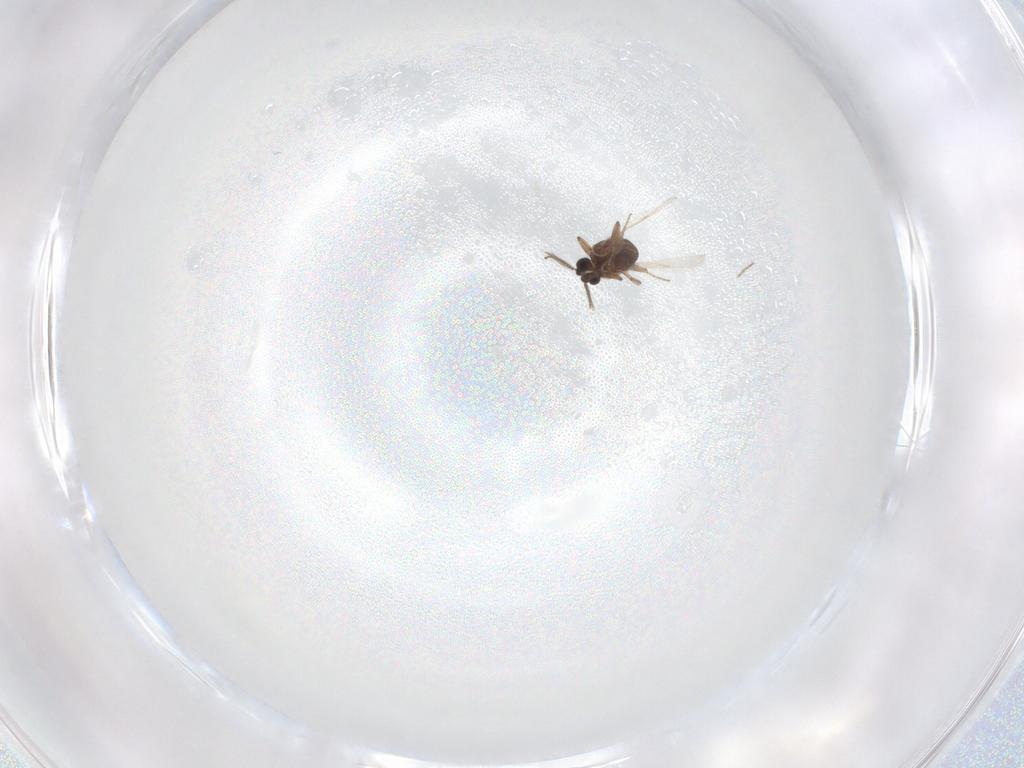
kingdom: Animalia
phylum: Arthropoda
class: Insecta
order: Diptera
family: Ceratopogonidae
